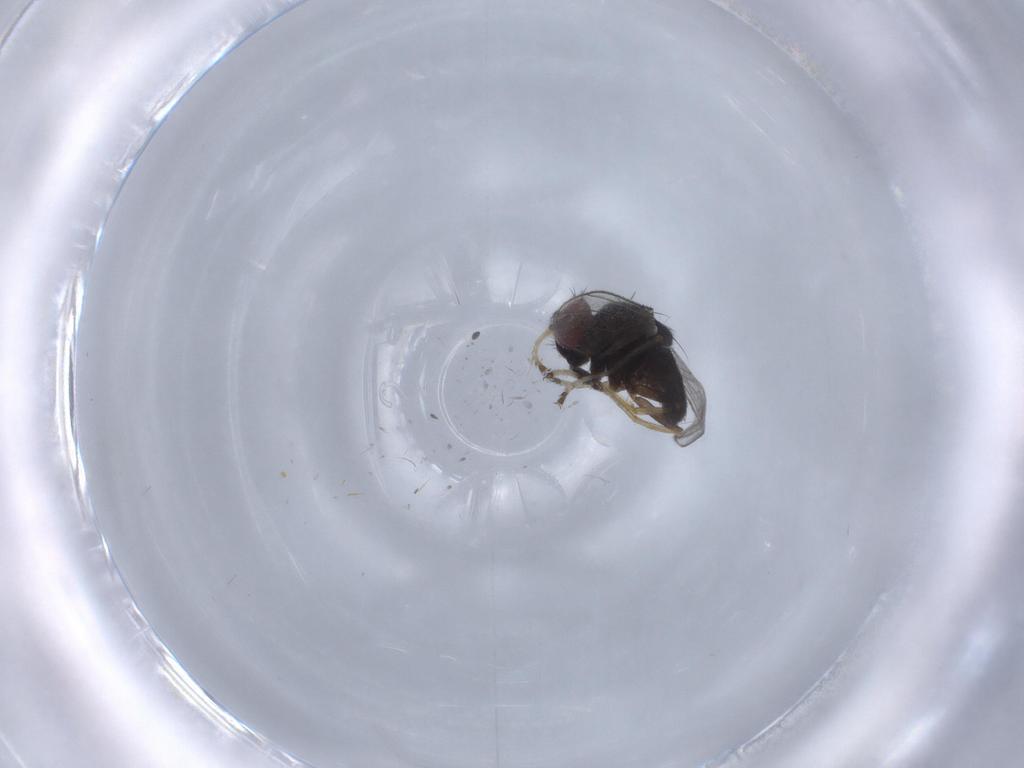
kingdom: Animalia
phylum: Arthropoda
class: Insecta
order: Diptera
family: Ephydridae
